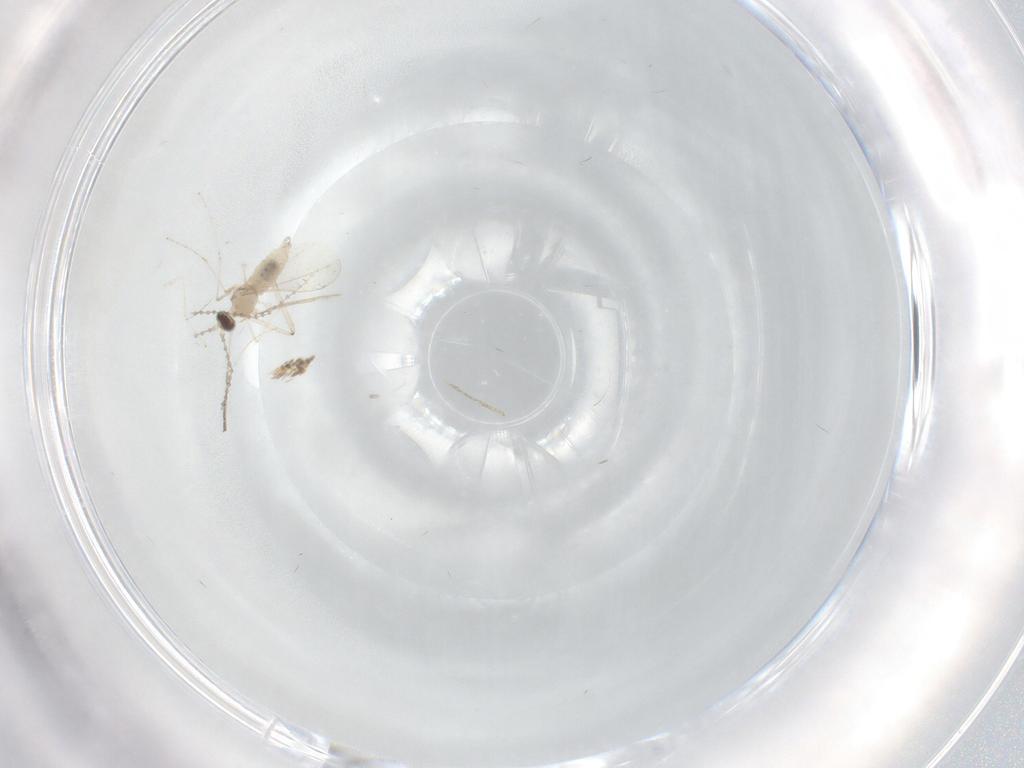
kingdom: Animalia
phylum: Arthropoda
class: Insecta
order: Diptera
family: Cecidomyiidae
